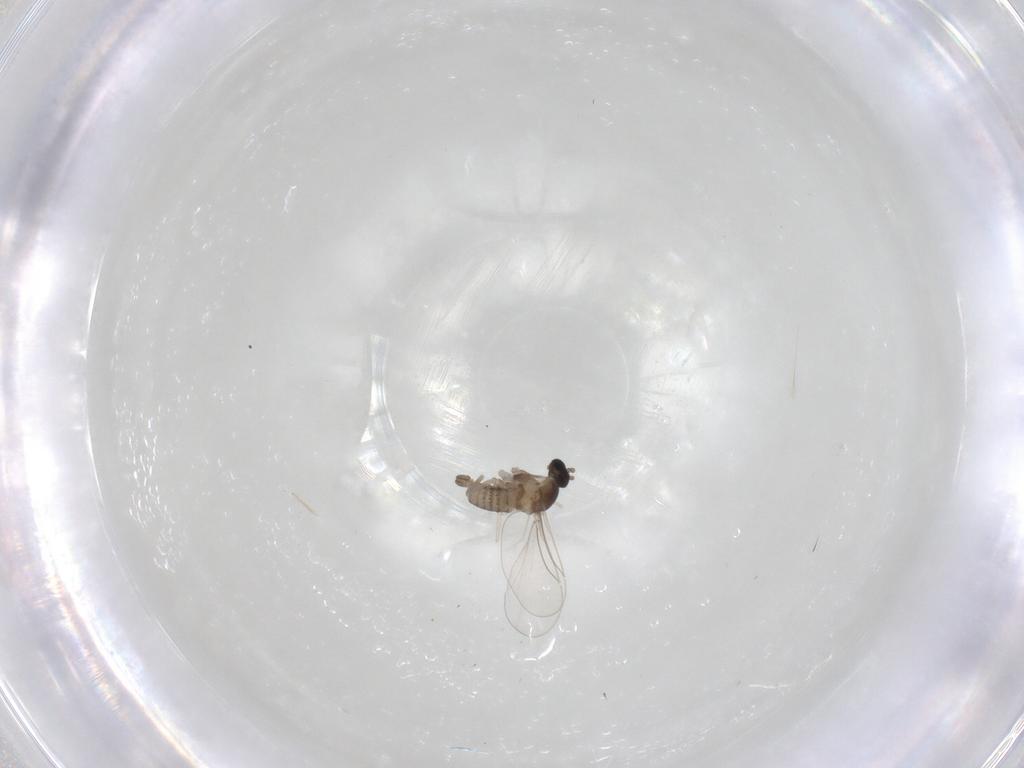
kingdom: Animalia
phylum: Arthropoda
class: Insecta
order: Diptera
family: Cecidomyiidae
